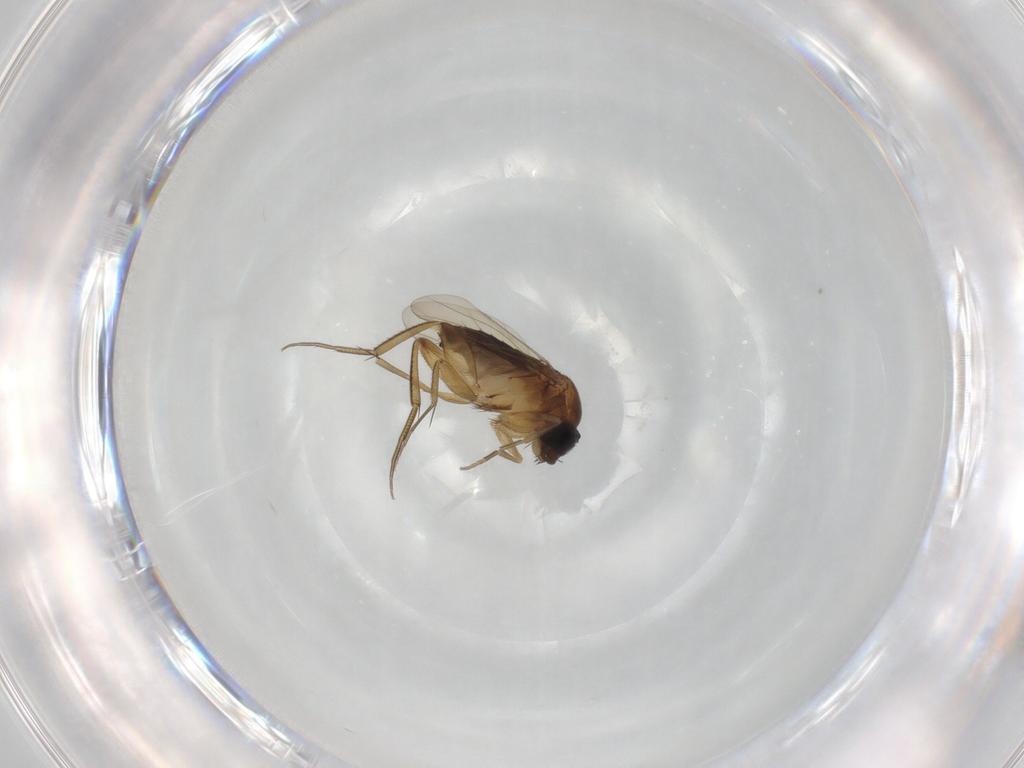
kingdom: Animalia
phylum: Arthropoda
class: Insecta
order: Diptera
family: Phoridae
